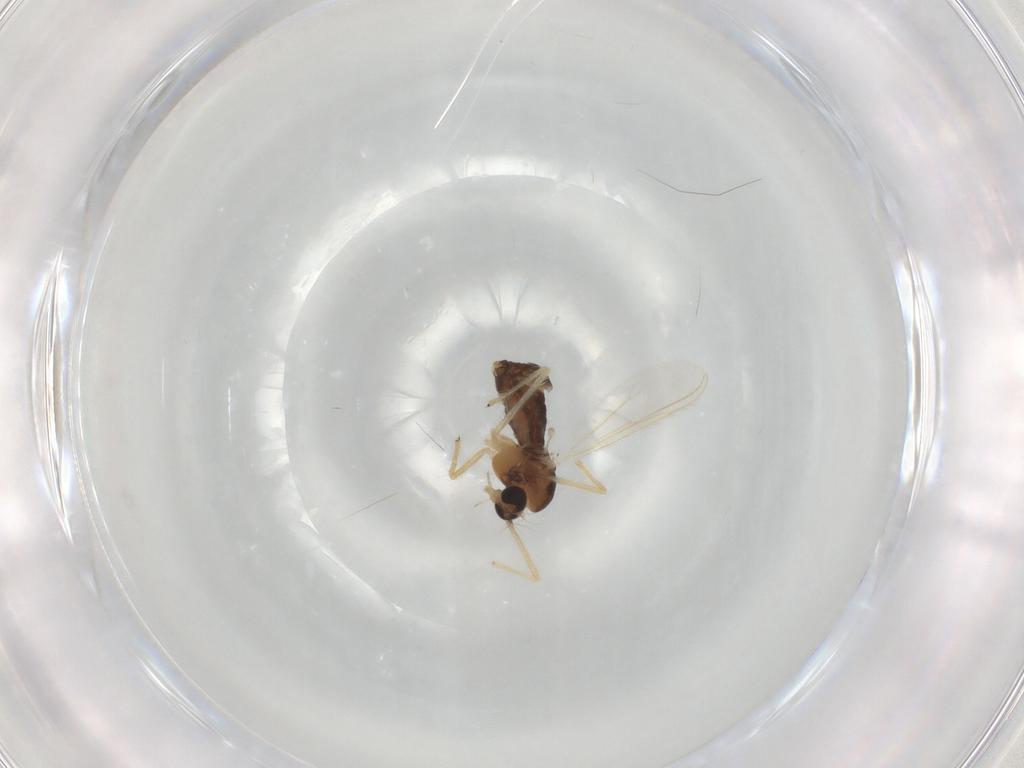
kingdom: Animalia
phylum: Arthropoda
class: Insecta
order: Diptera
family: Chironomidae
